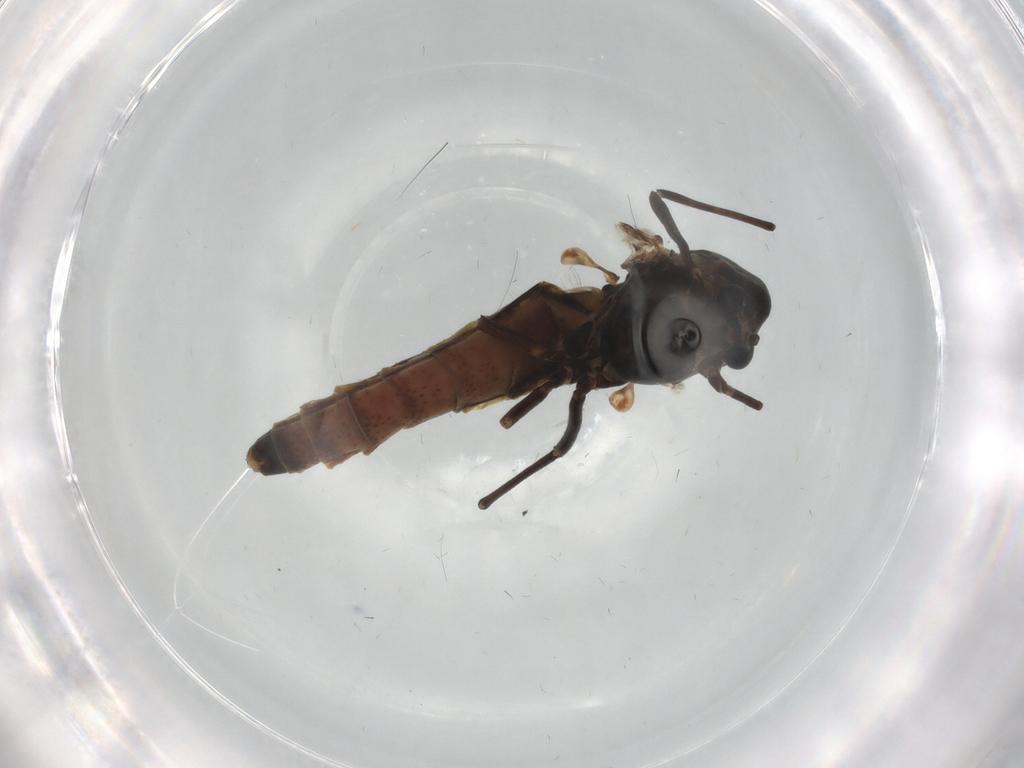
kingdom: Animalia
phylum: Arthropoda
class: Insecta
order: Diptera
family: Chironomidae
